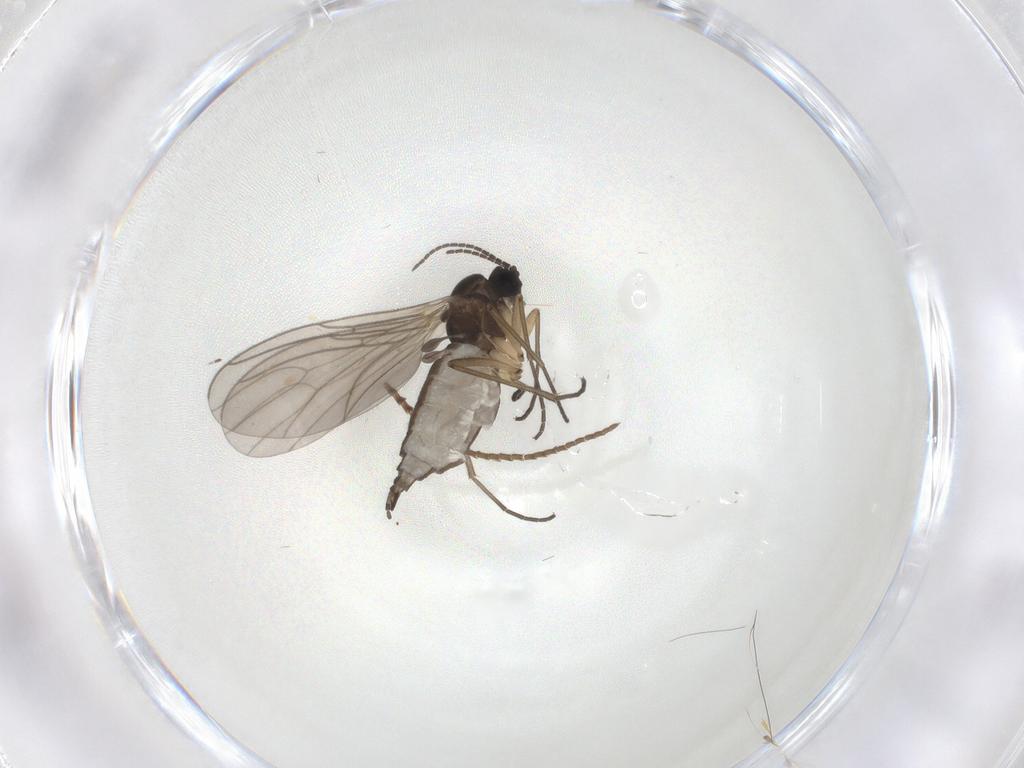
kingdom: Animalia
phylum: Arthropoda
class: Insecta
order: Diptera
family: Sciaridae
